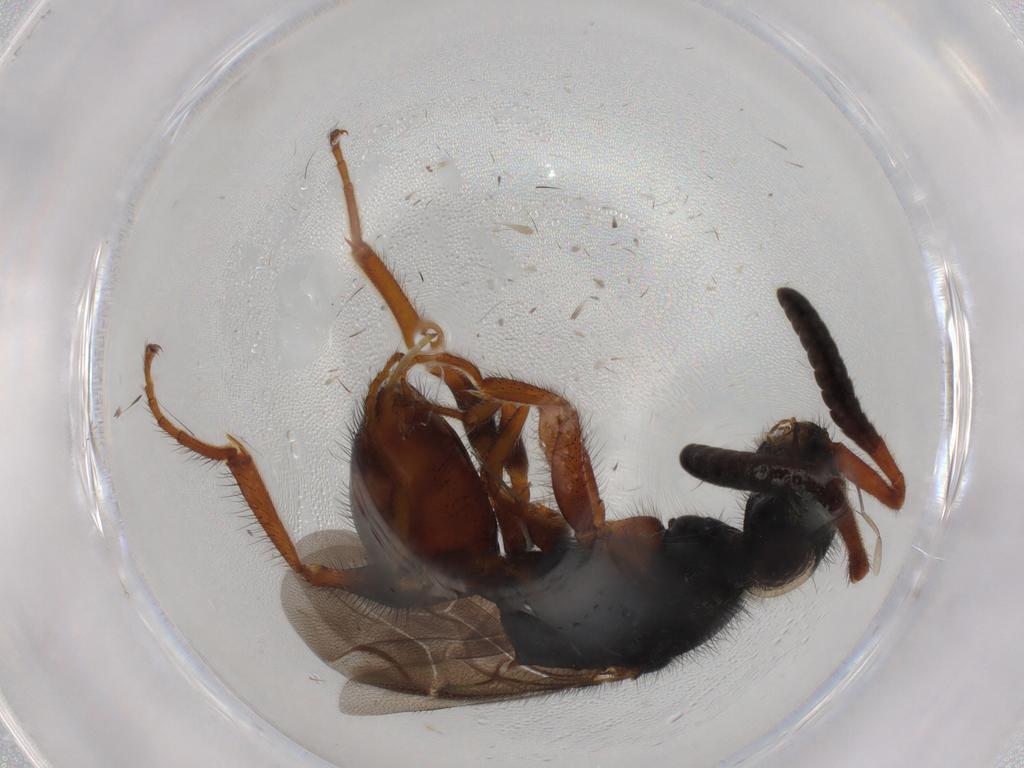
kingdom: Animalia
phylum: Arthropoda
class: Insecta
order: Hymenoptera
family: Chrysididae
